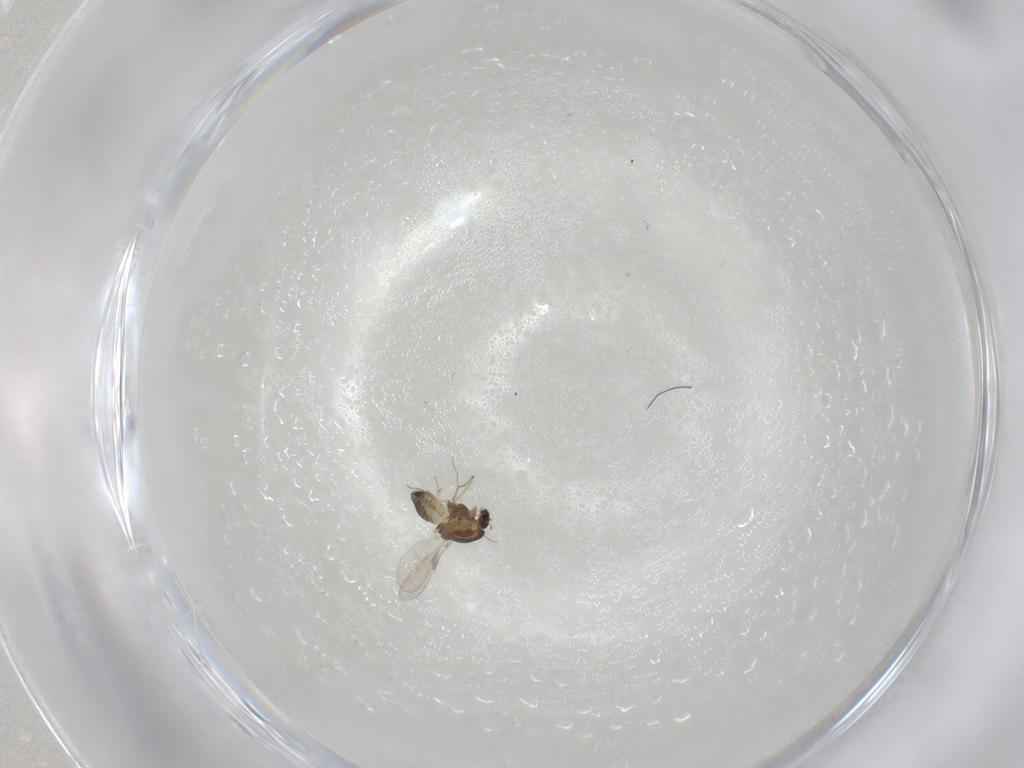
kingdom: Animalia
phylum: Arthropoda
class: Insecta
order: Diptera
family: Chironomidae
